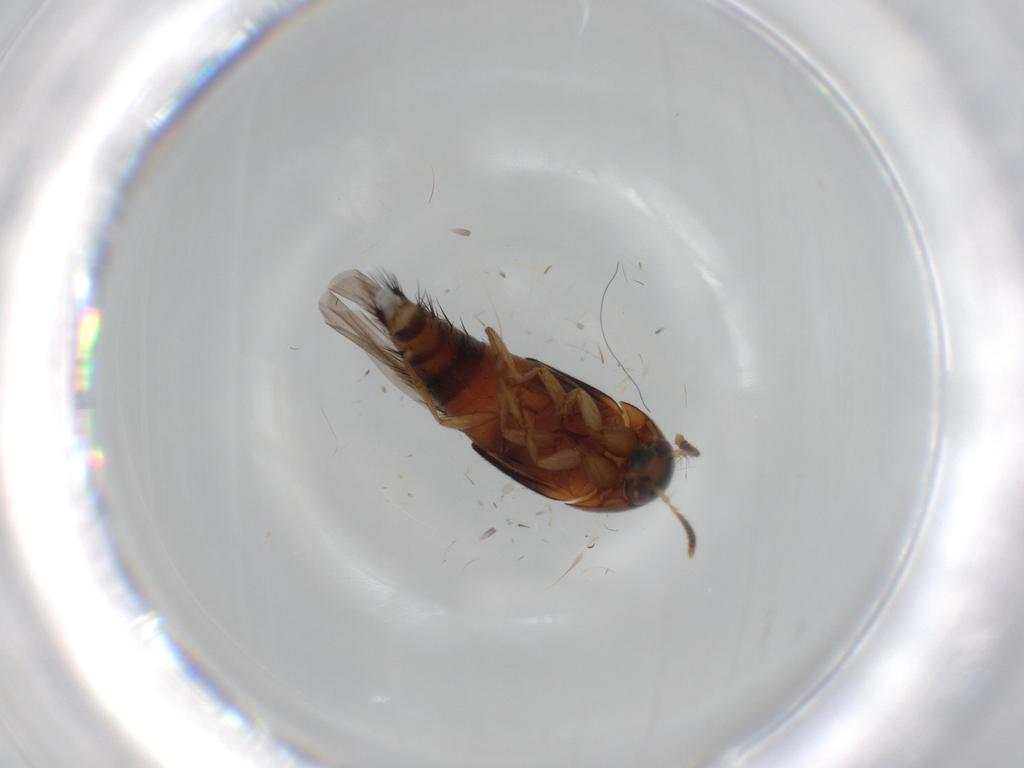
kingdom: Animalia
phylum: Arthropoda
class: Insecta
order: Coleoptera
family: Staphylinidae
